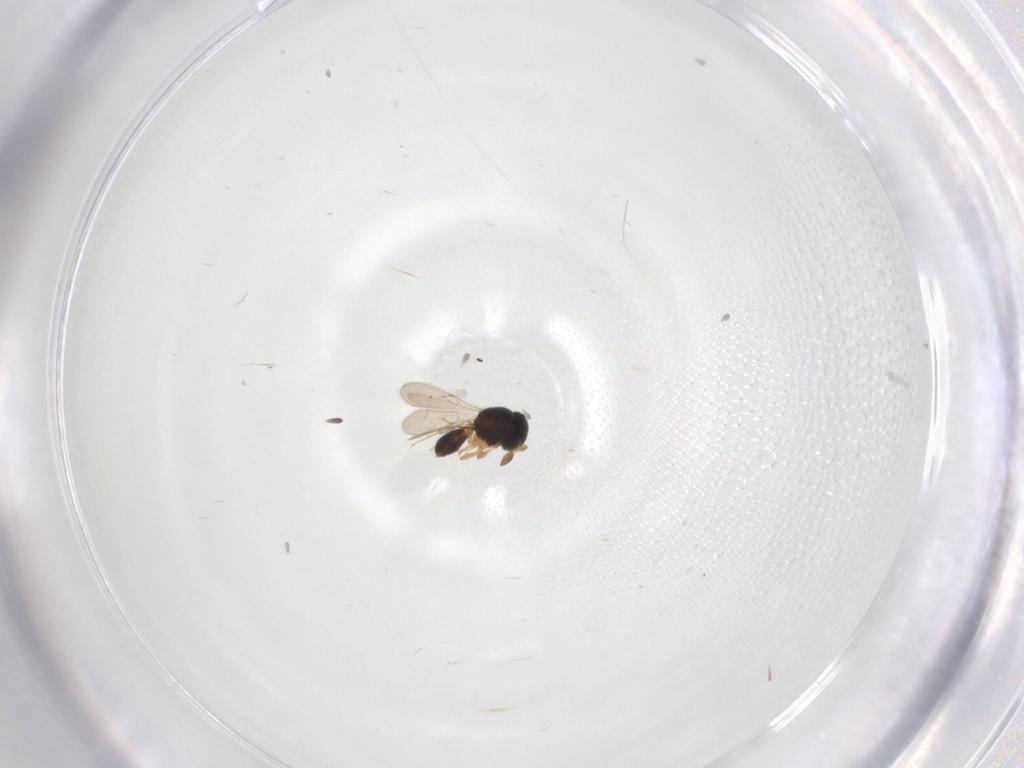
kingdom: Animalia
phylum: Arthropoda
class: Insecta
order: Hymenoptera
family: Scelionidae
